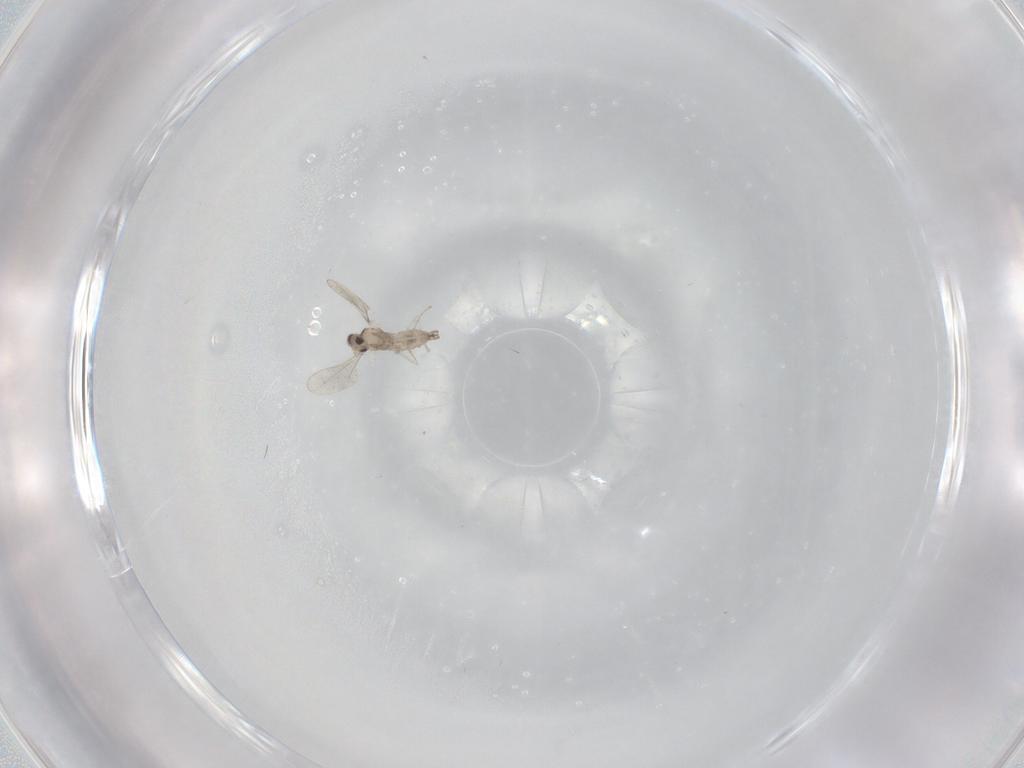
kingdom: Animalia
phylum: Arthropoda
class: Insecta
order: Diptera
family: Cecidomyiidae
